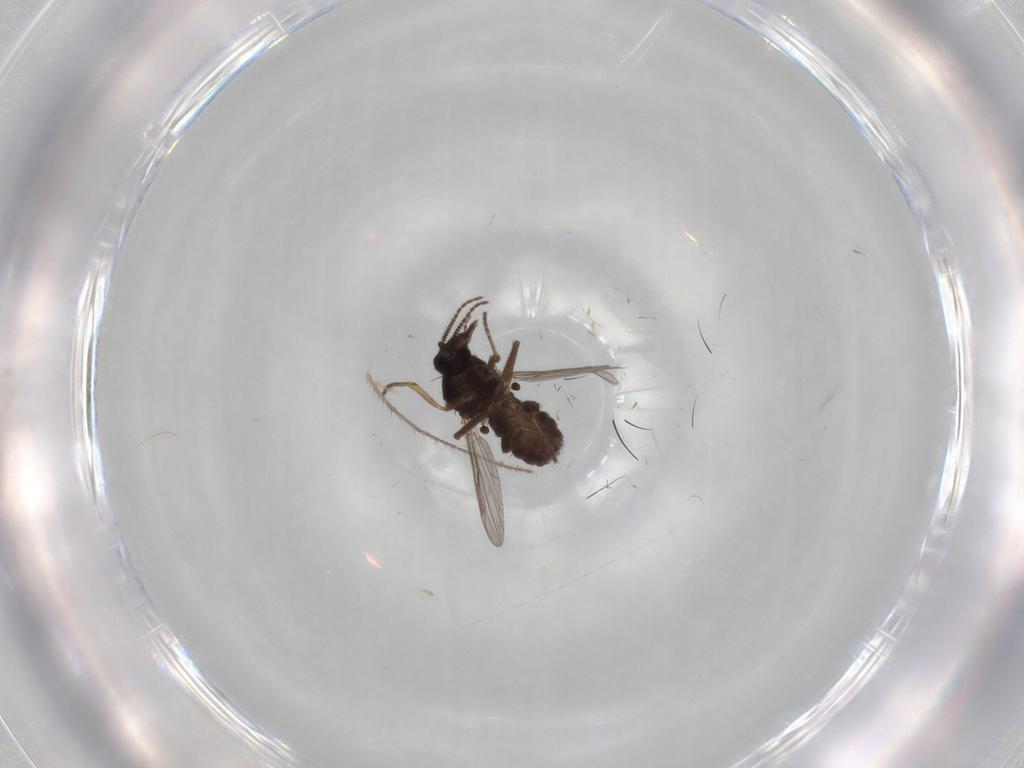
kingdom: Animalia
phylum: Arthropoda
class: Insecta
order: Diptera
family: Ceratopogonidae
